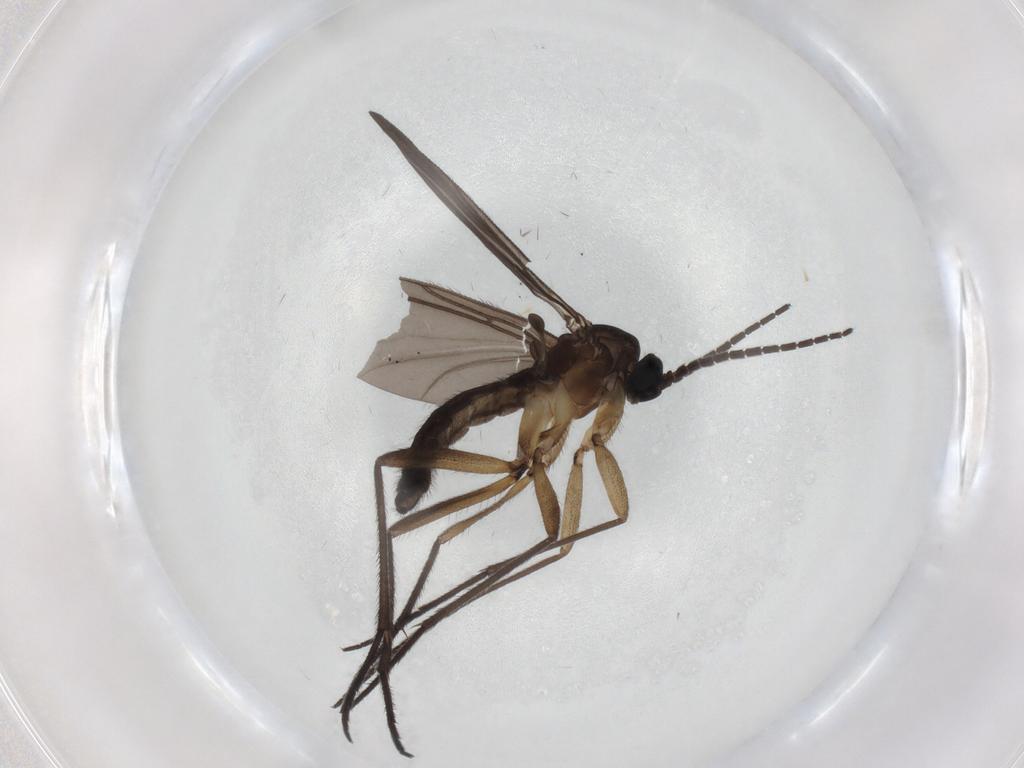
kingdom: Animalia
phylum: Arthropoda
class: Insecta
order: Diptera
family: Sciaridae
